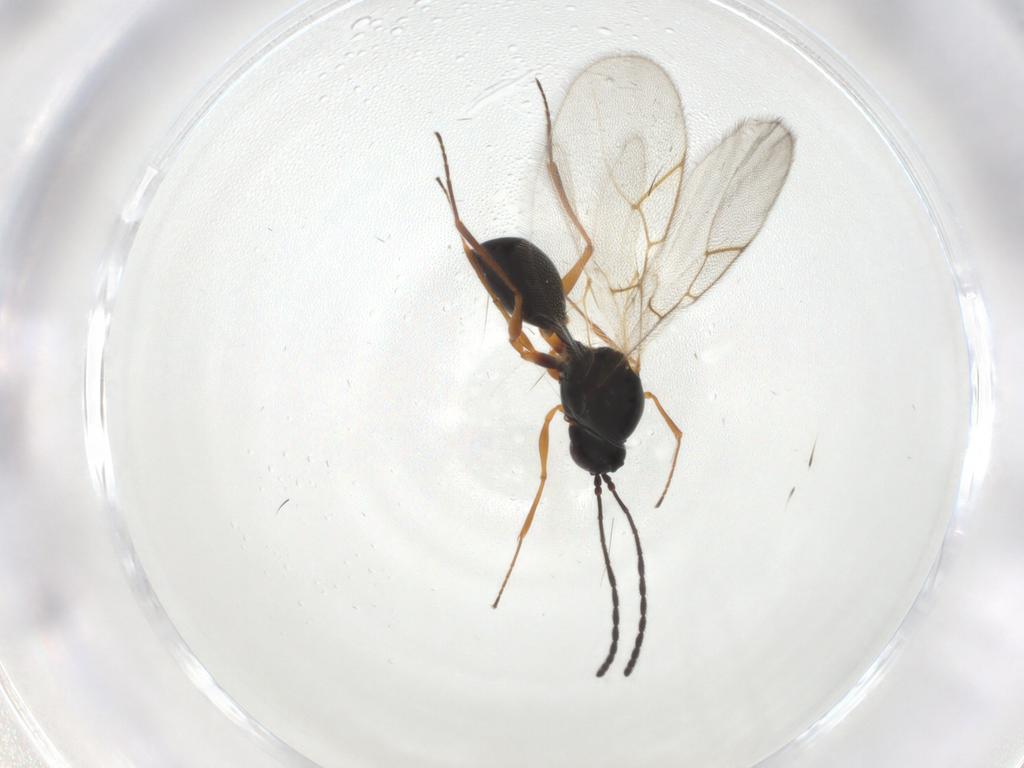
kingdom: Animalia
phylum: Arthropoda
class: Insecta
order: Hymenoptera
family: Figitidae
